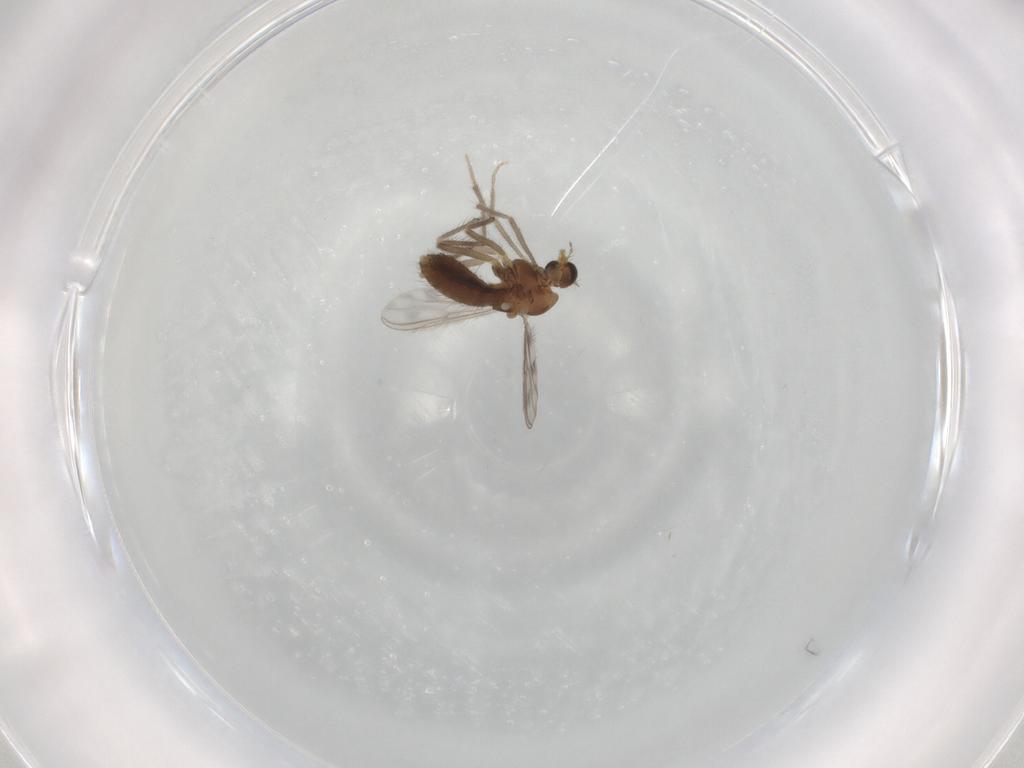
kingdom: Animalia
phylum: Arthropoda
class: Insecta
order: Diptera
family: Chironomidae
